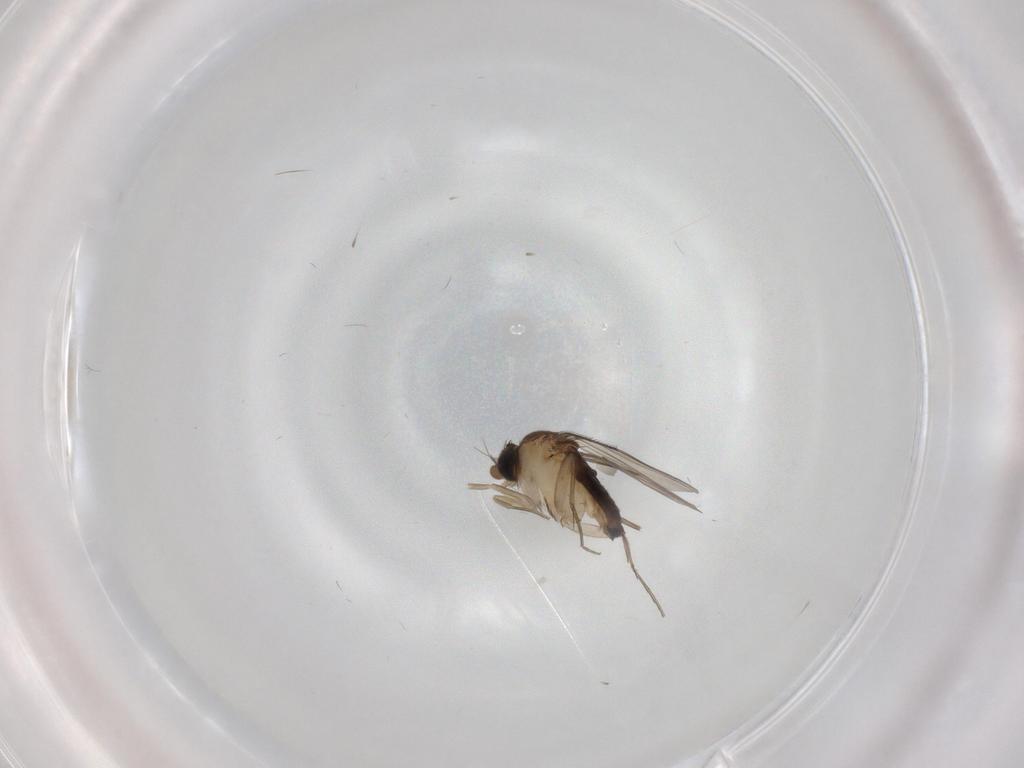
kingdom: Animalia
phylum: Arthropoda
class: Insecta
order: Diptera
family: Phoridae
